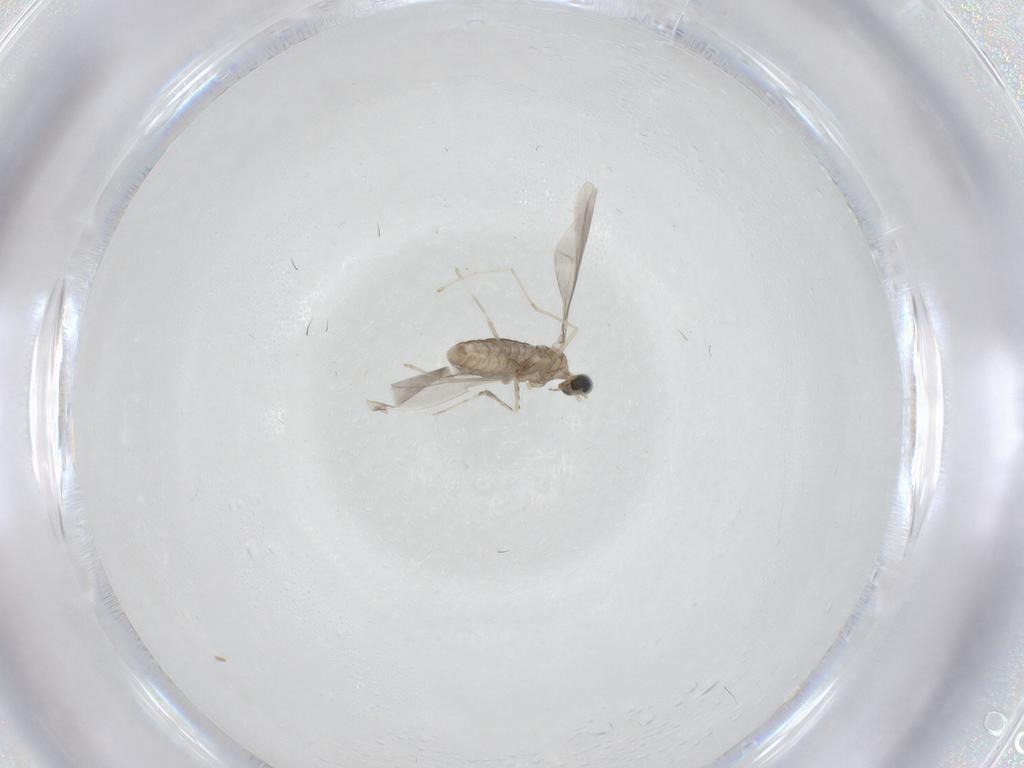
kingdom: Animalia
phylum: Arthropoda
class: Insecta
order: Diptera
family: Cecidomyiidae
